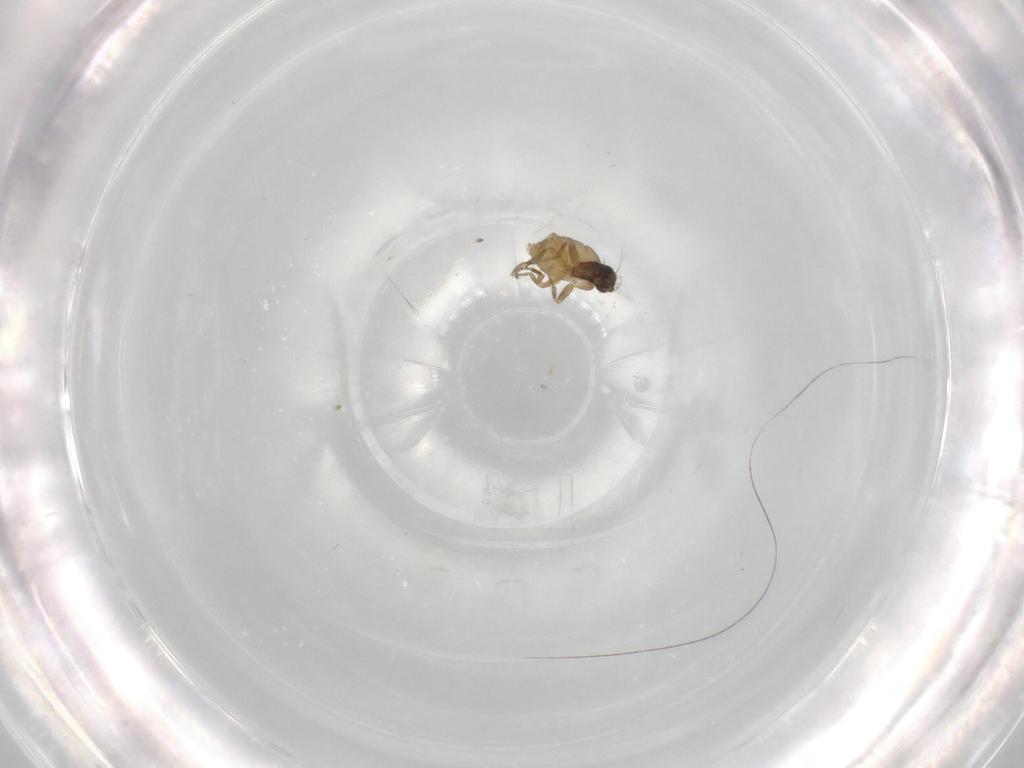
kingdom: Animalia
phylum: Arthropoda
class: Insecta
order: Diptera
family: Phoridae
